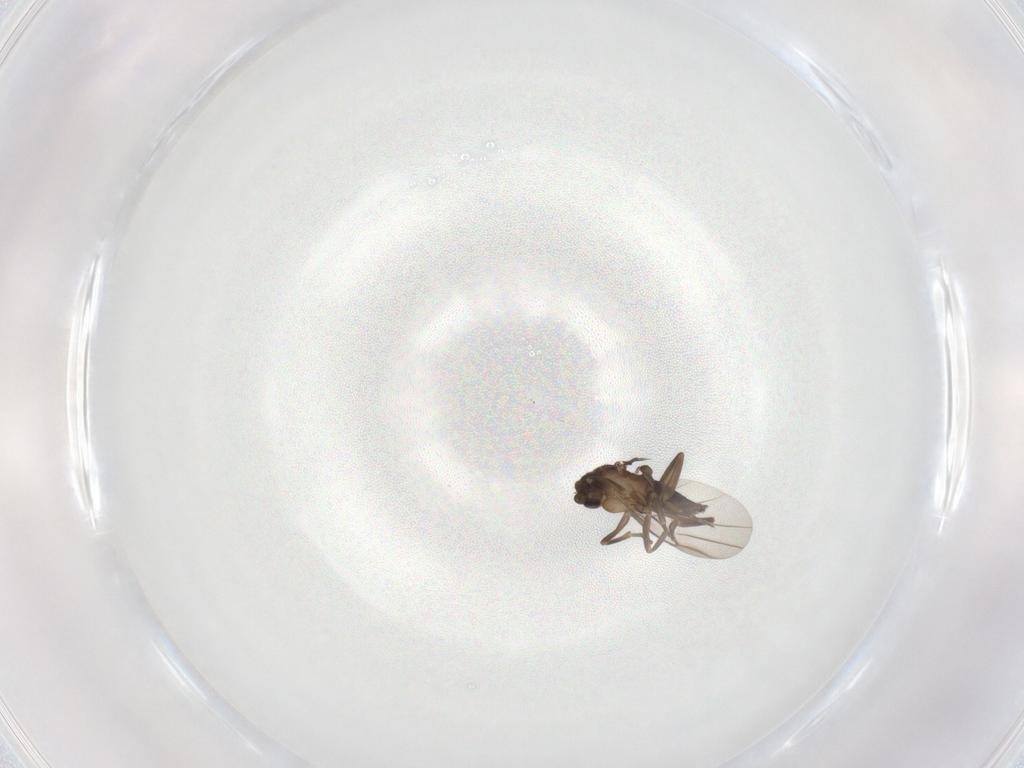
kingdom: Animalia
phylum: Arthropoda
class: Insecta
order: Diptera
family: Phoridae
